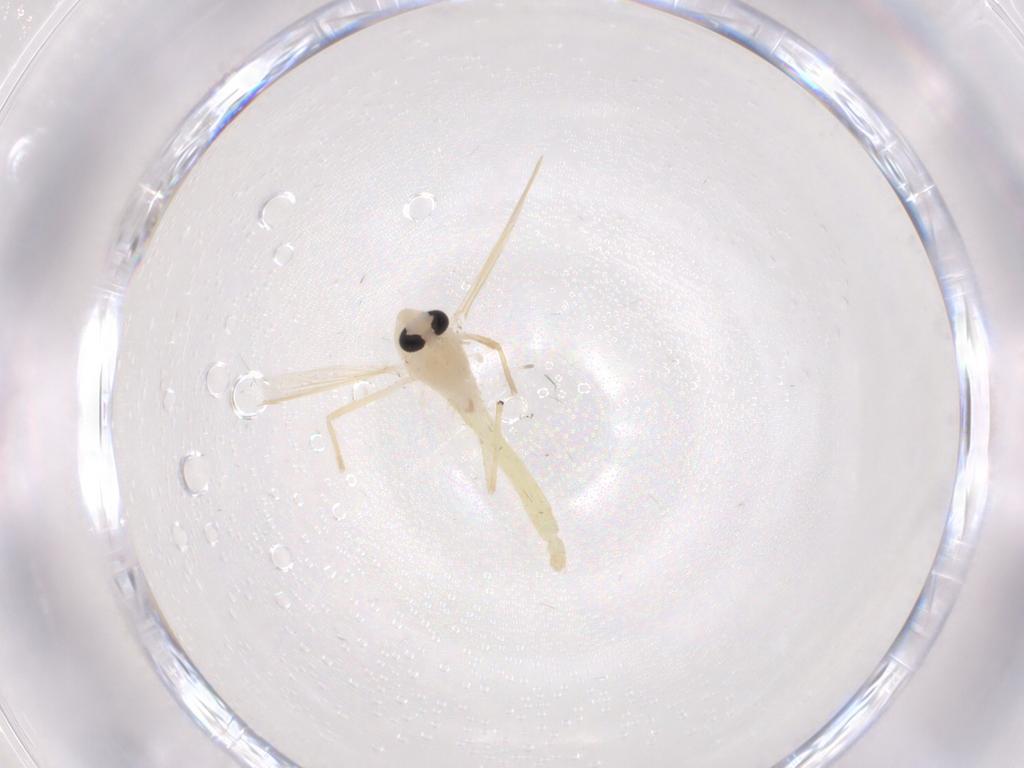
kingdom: Animalia
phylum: Arthropoda
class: Insecta
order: Diptera
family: Chironomidae
